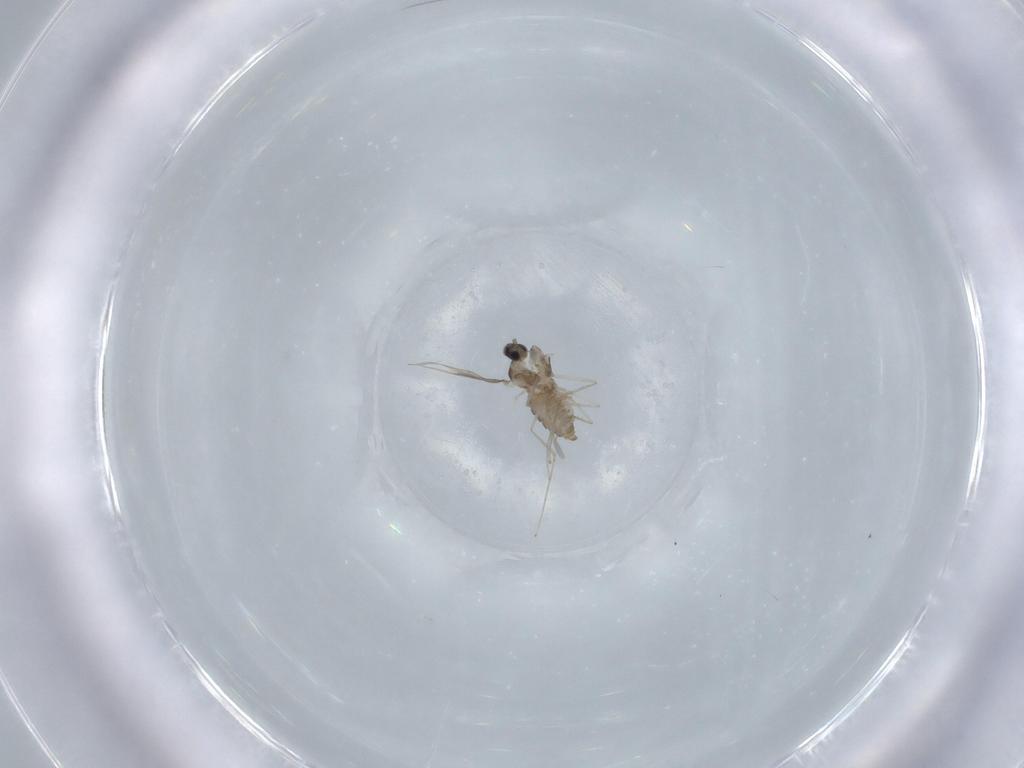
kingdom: Animalia
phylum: Arthropoda
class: Insecta
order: Diptera
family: Cecidomyiidae
